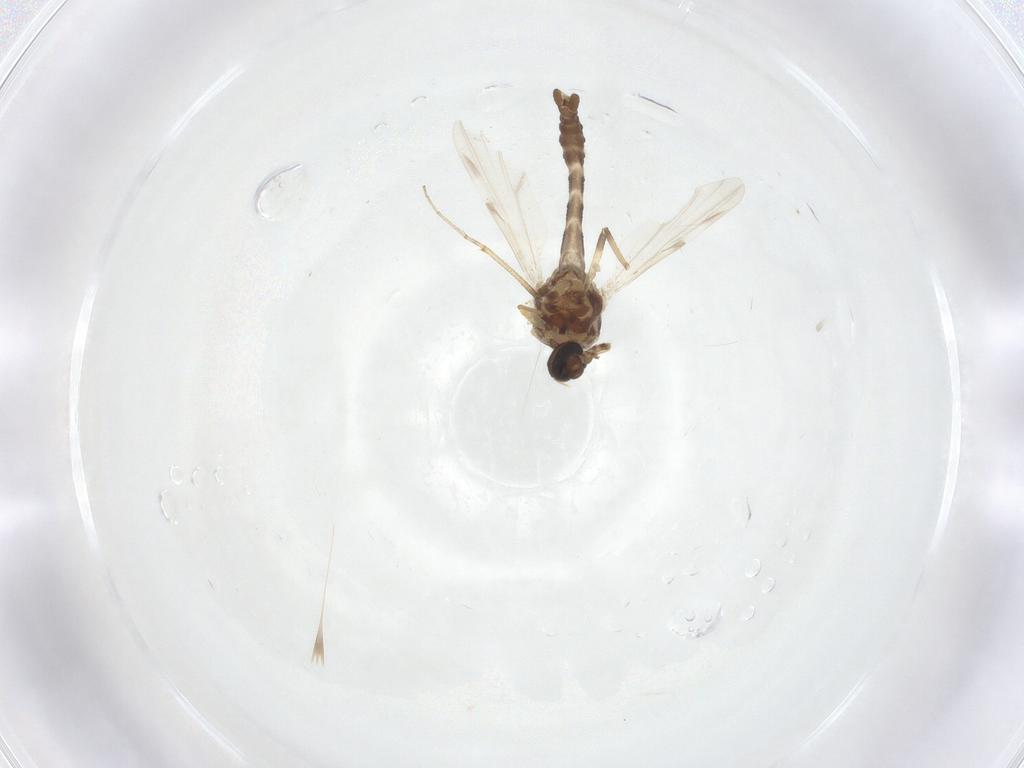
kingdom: Animalia
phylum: Arthropoda
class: Insecta
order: Diptera
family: Ceratopogonidae
